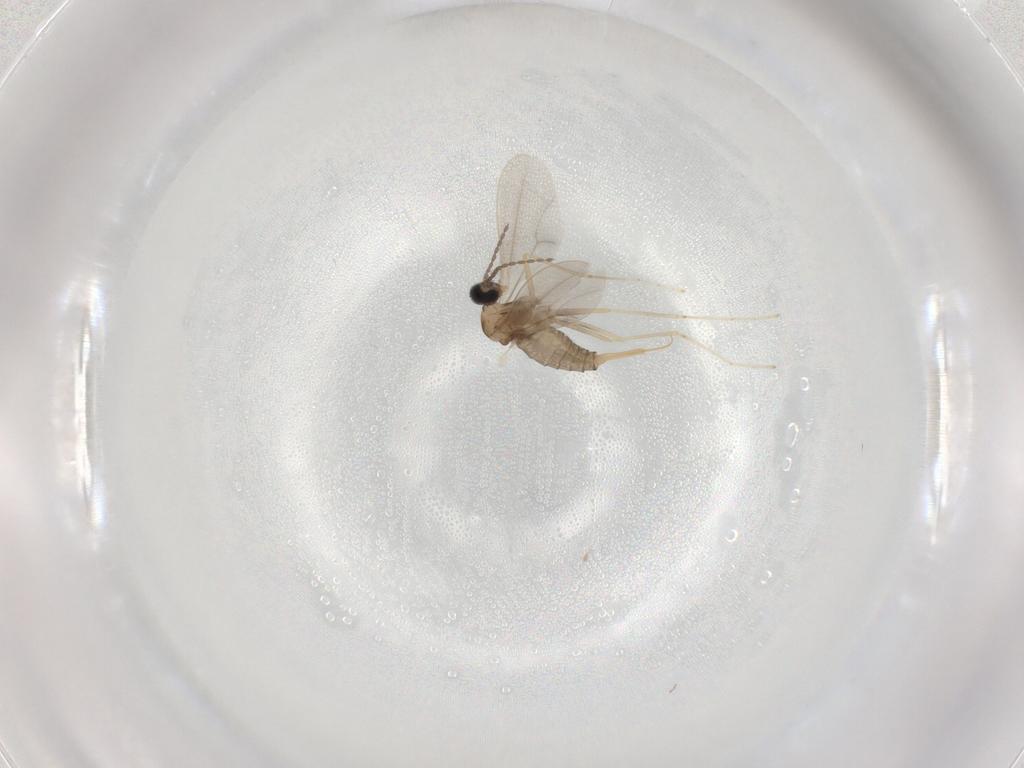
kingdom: Animalia
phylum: Arthropoda
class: Insecta
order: Diptera
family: Cecidomyiidae
